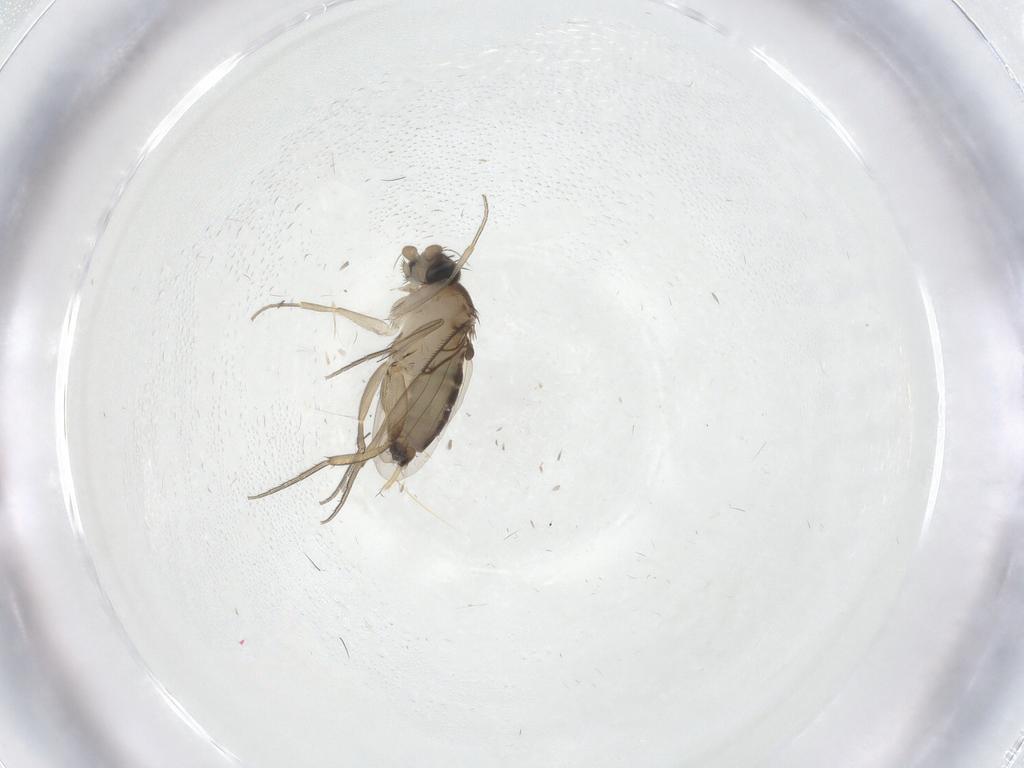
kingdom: Animalia
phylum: Arthropoda
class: Insecta
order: Diptera
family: Phoridae
